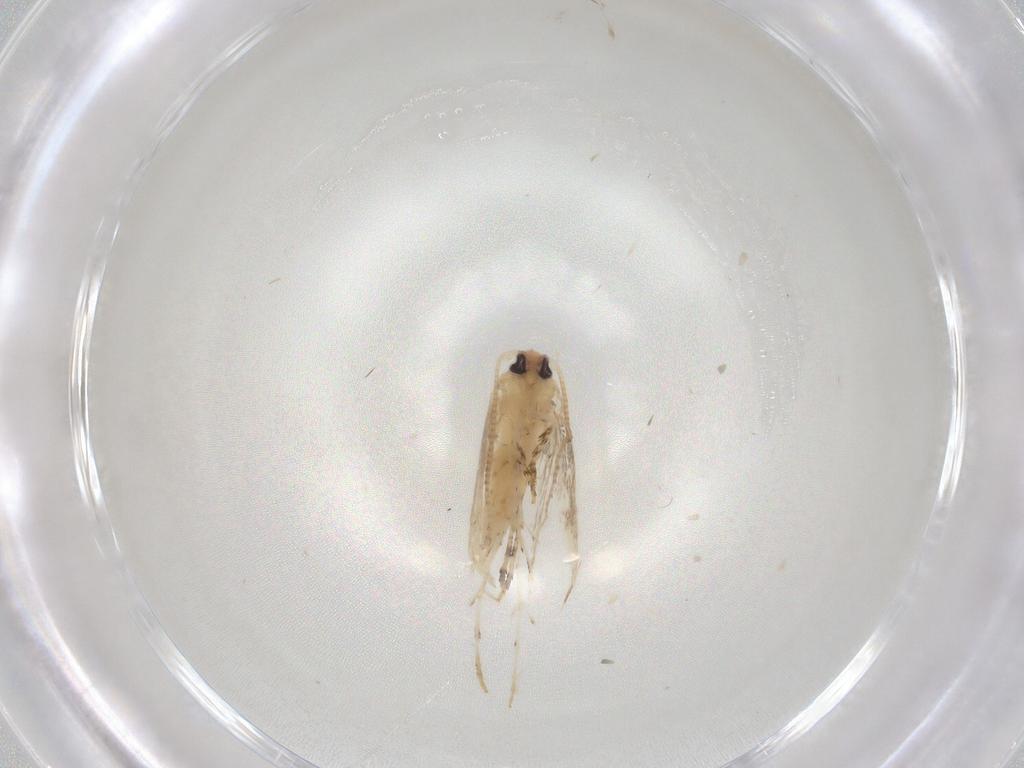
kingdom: Animalia
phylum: Arthropoda
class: Insecta
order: Lepidoptera
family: Gracillariidae
